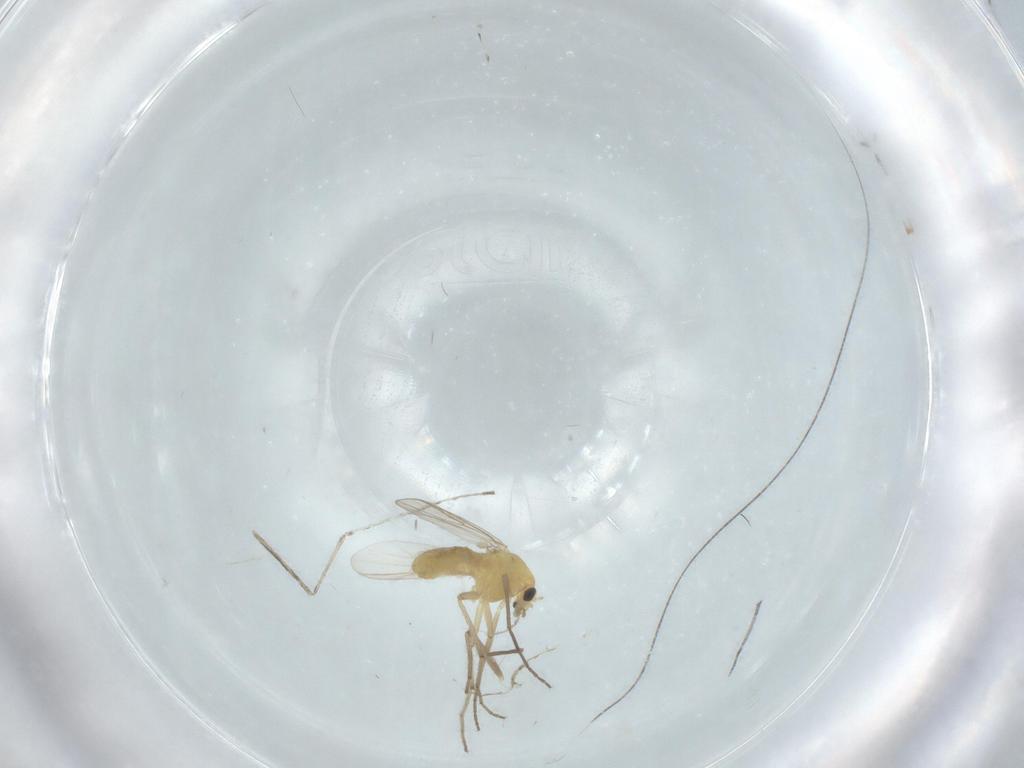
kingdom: Animalia
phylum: Arthropoda
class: Insecta
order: Diptera
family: Chironomidae
